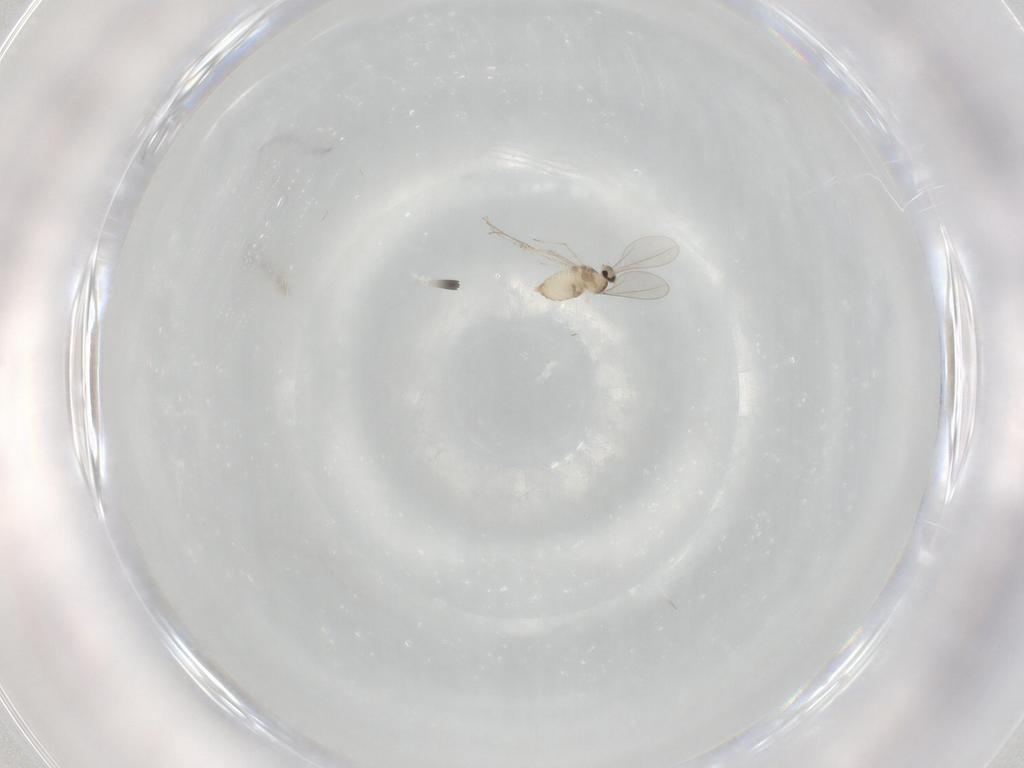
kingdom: Animalia
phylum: Arthropoda
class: Insecta
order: Diptera
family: Cecidomyiidae
